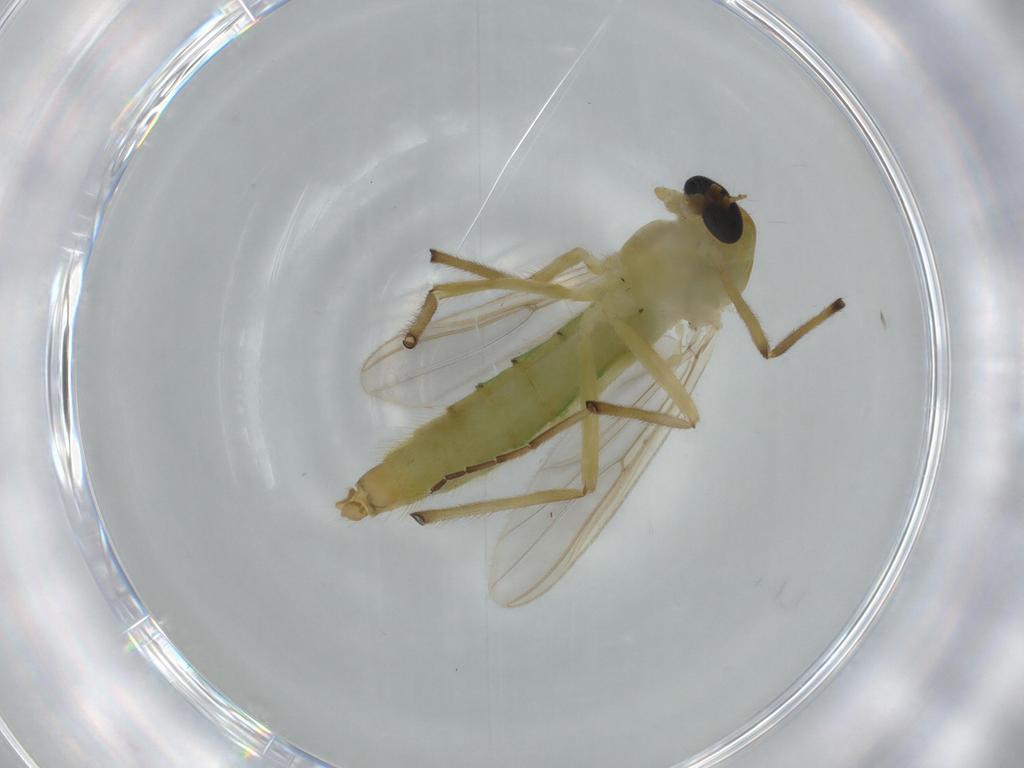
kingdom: Animalia
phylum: Arthropoda
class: Insecta
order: Diptera
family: Chironomidae
